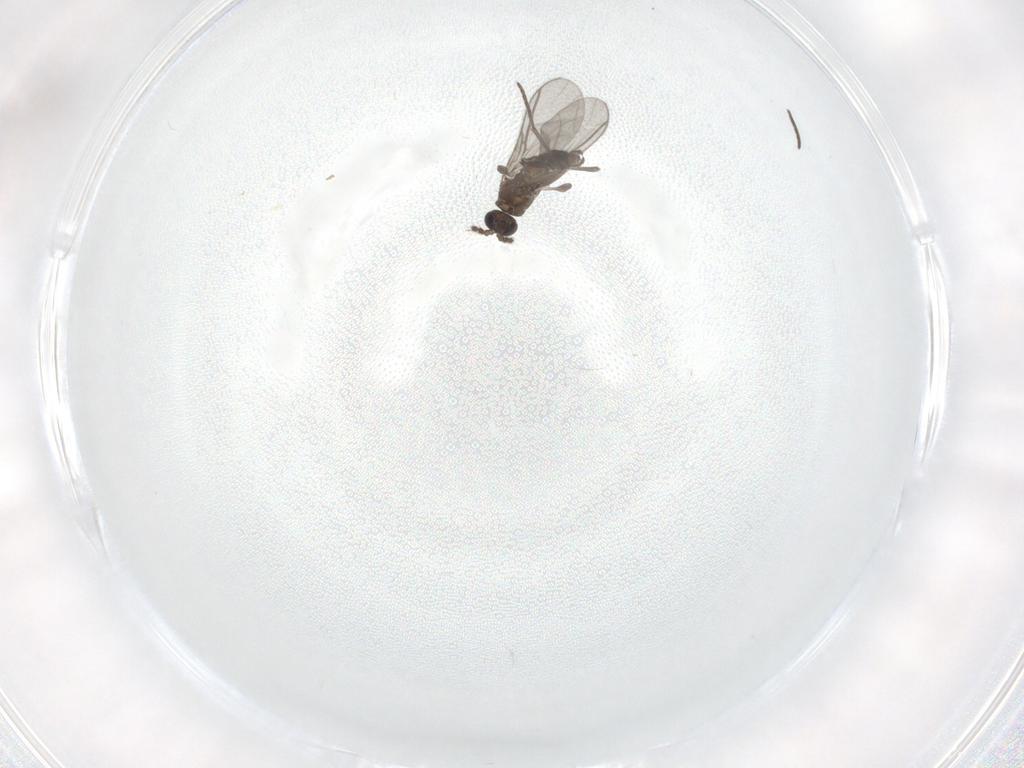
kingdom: Animalia
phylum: Arthropoda
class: Insecta
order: Diptera
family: Chironomidae
